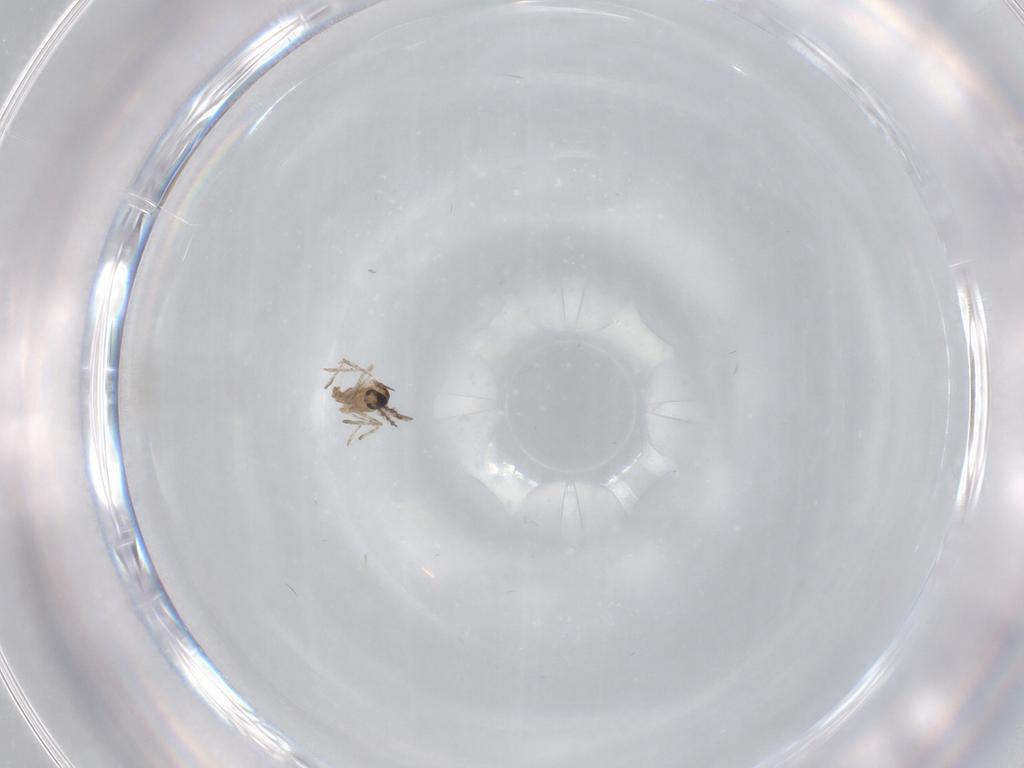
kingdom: Animalia
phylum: Arthropoda
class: Insecta
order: Diptera
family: Cecidomyiidae
